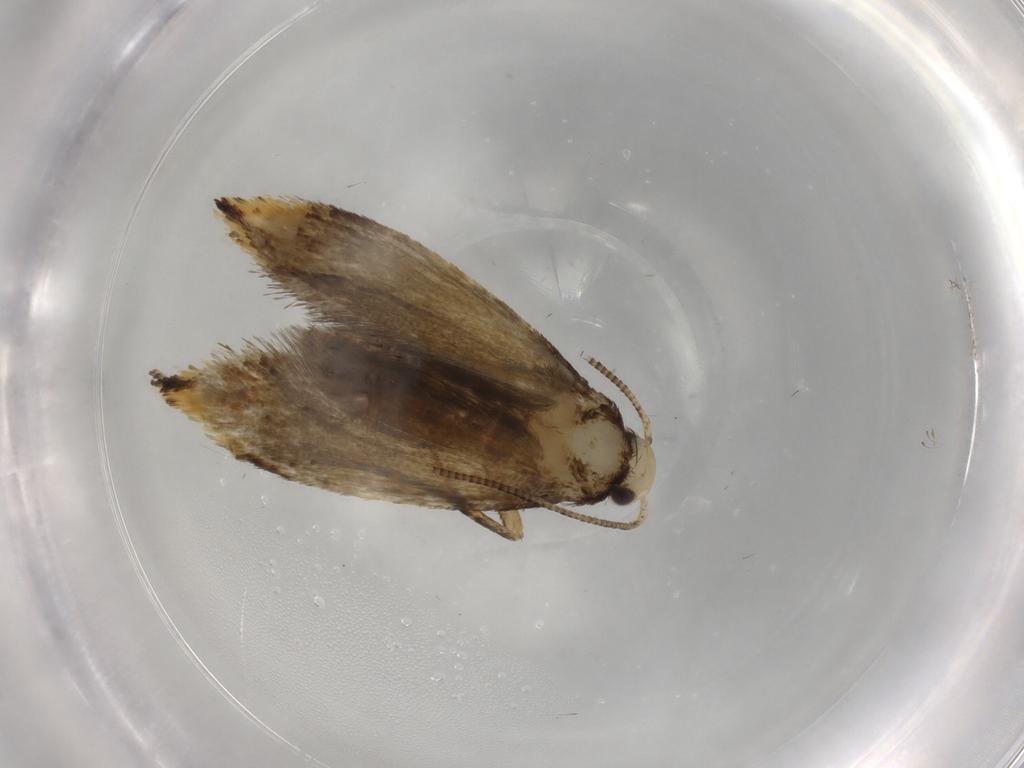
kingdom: Animalia
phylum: Arthropoda
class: Insecta
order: Lepidoptera
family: Pieridae
